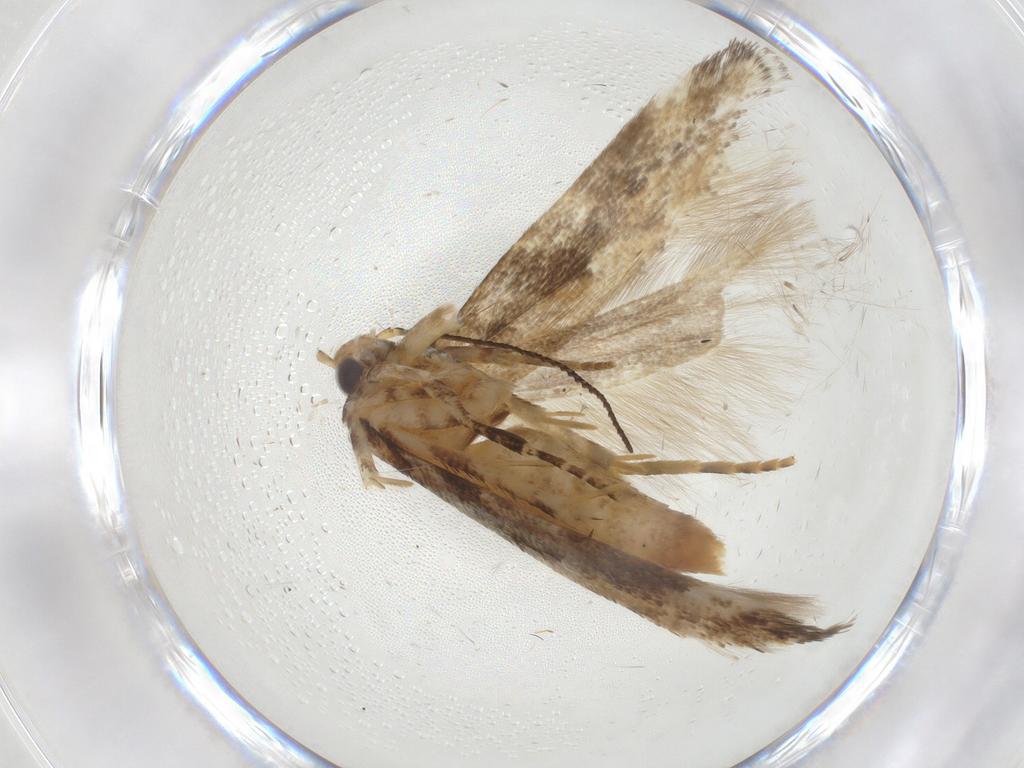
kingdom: Animalia
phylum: Arthropoda
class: Insecta
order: Lepidoptera
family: Gelechiidae
